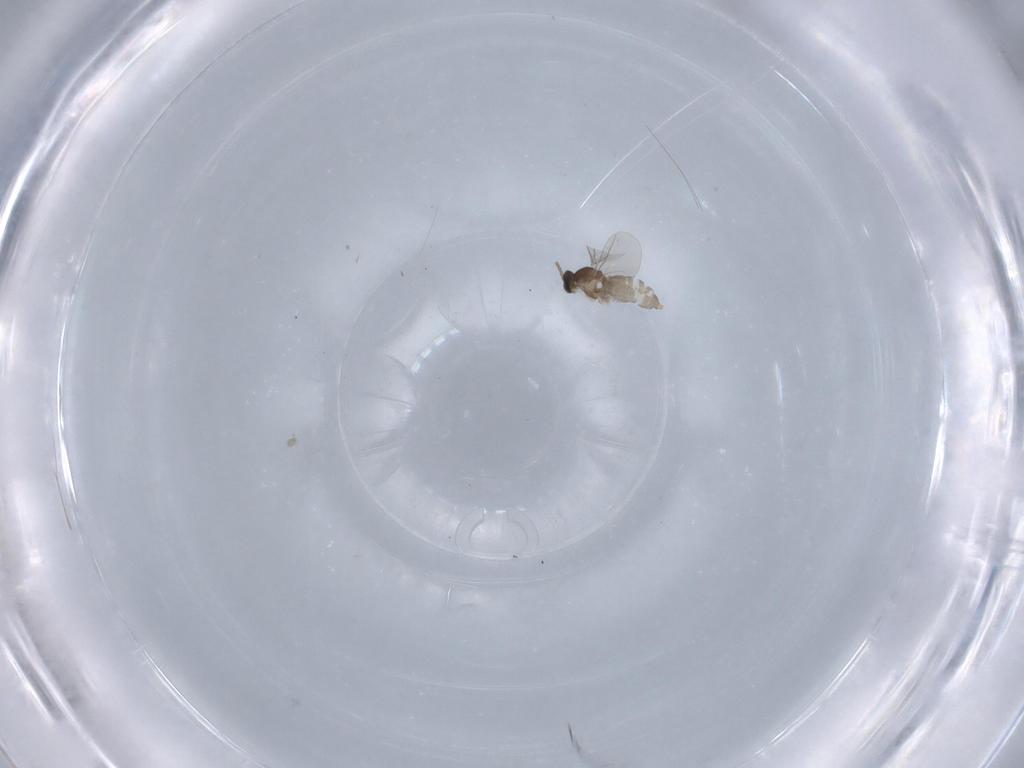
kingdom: Animalia
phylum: Arthropoda
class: Insecta
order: Diptera
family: Cecidomyiidae
